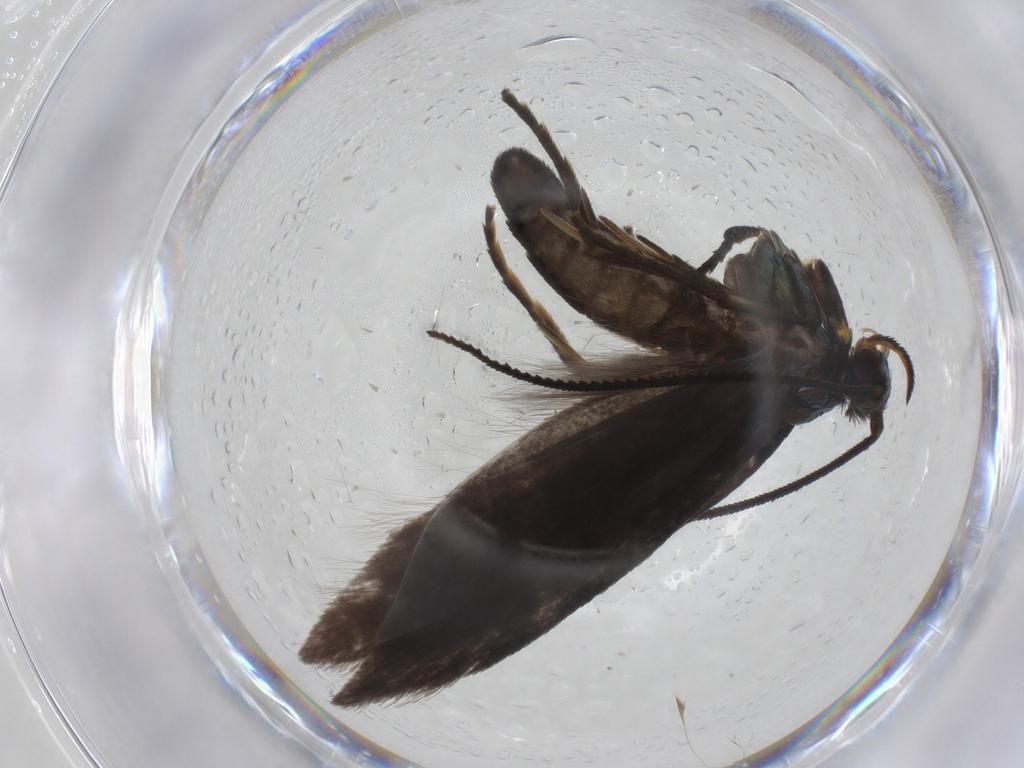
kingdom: Animalia
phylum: Arthropoda
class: Insecta
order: Lepidoptera
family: Argyresthiidae
